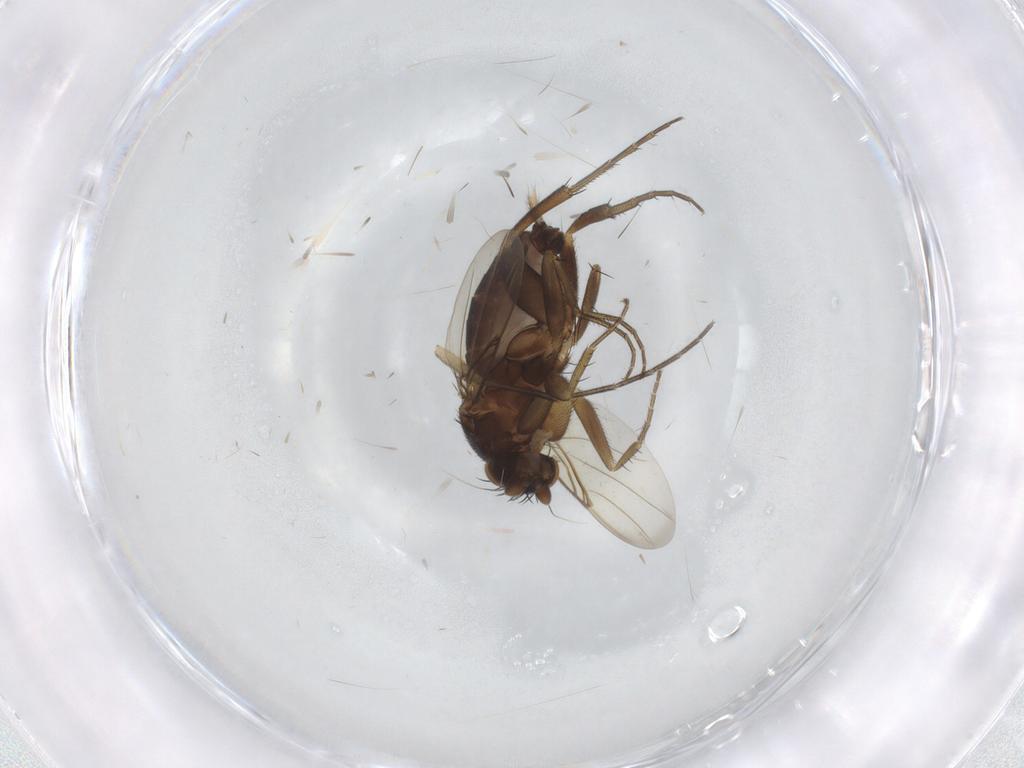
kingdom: Animalia
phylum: Arthropoda
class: Insecta
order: Diptera
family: Phoridae
